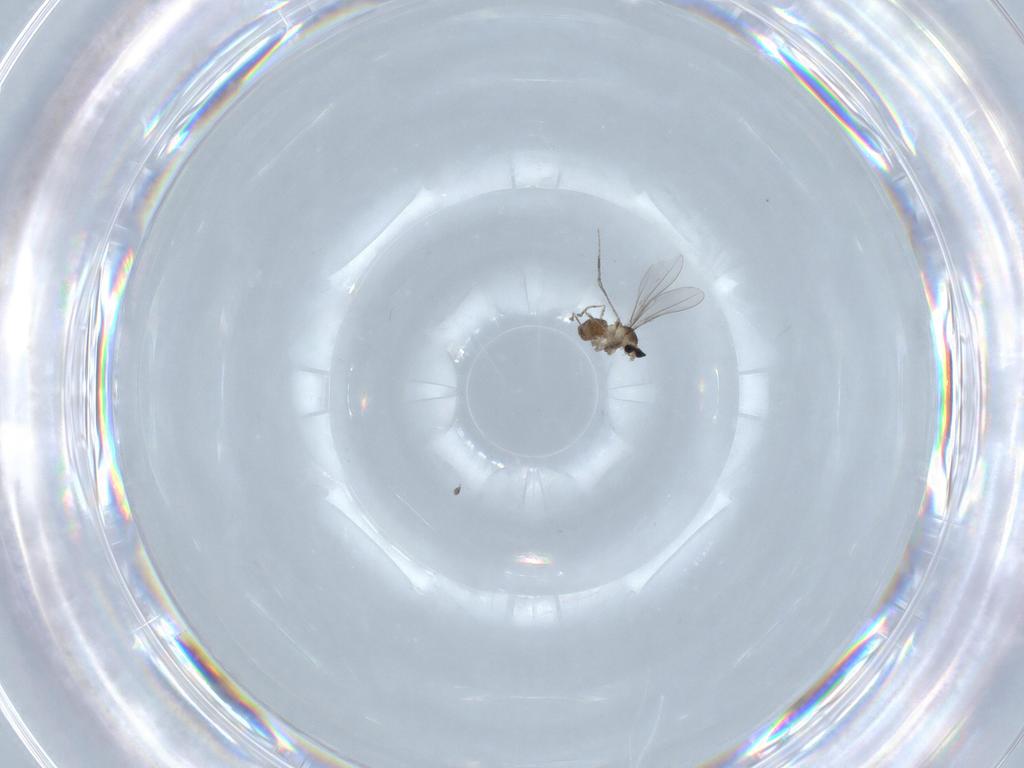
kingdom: Animalia
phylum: Arthropoda
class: Insecta
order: Diptera
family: Cecidomyiidae
